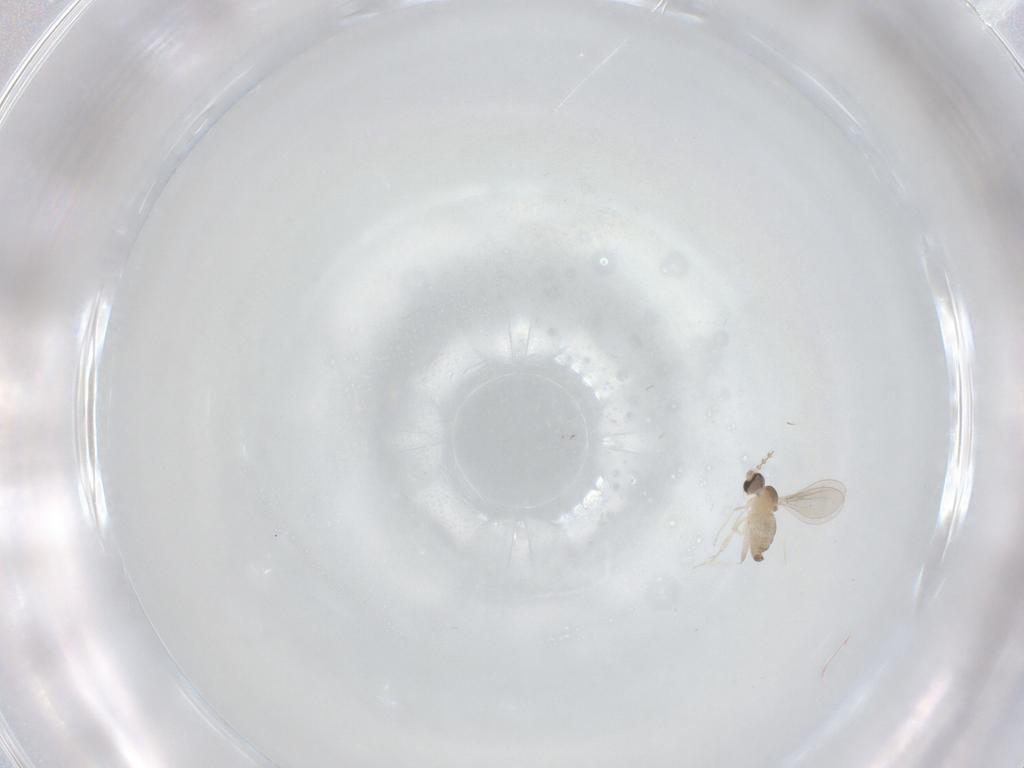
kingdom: Animalia
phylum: Arthropoda
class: Insecta
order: Diptera
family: Cecidomyiidae
